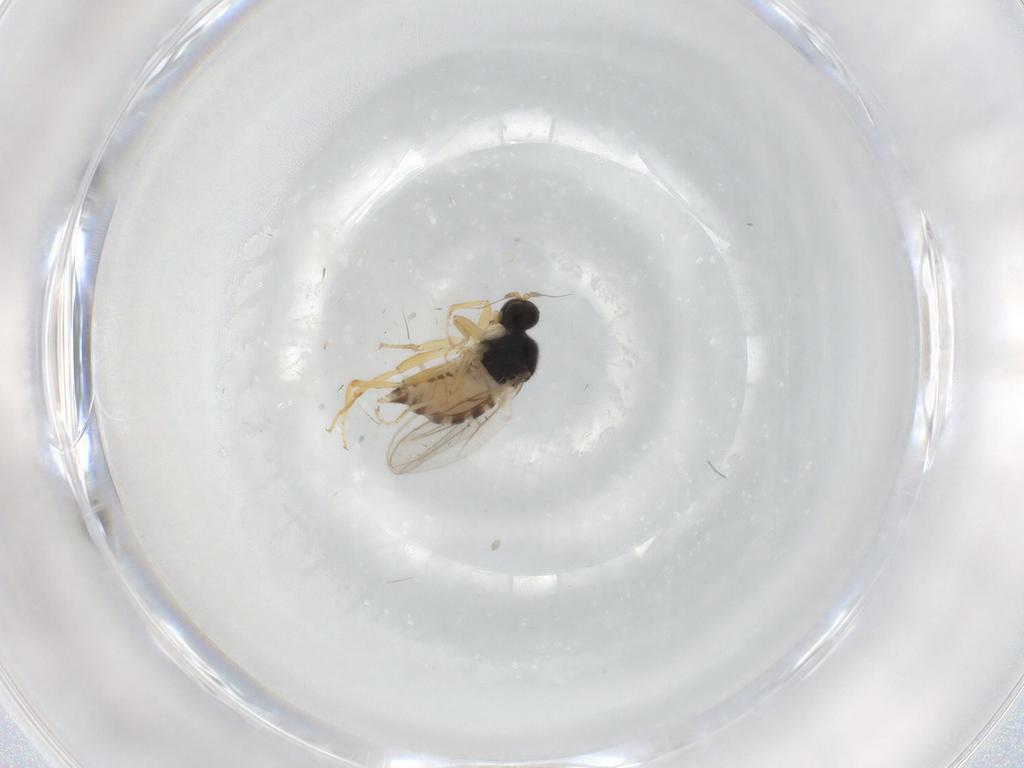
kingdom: Animalia
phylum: Arthropoda
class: Insecta
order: Diptera
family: Hybotidae
